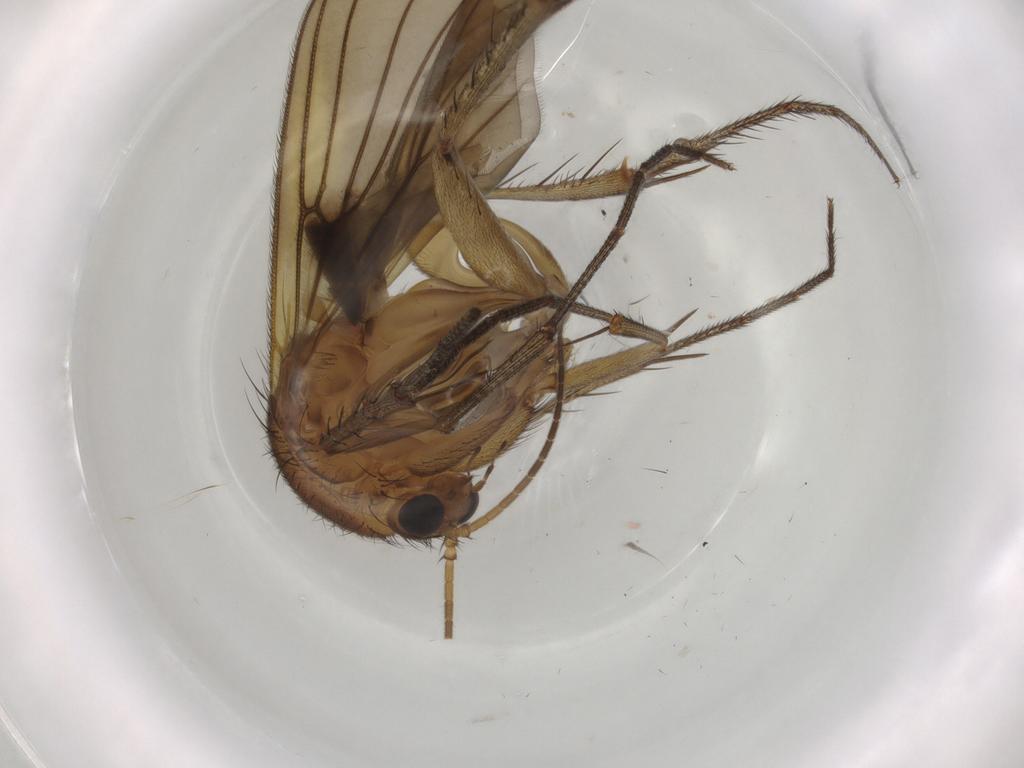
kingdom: Animalia
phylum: Arthropoda
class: Insecta
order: Diptera
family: Mycetophilidae
